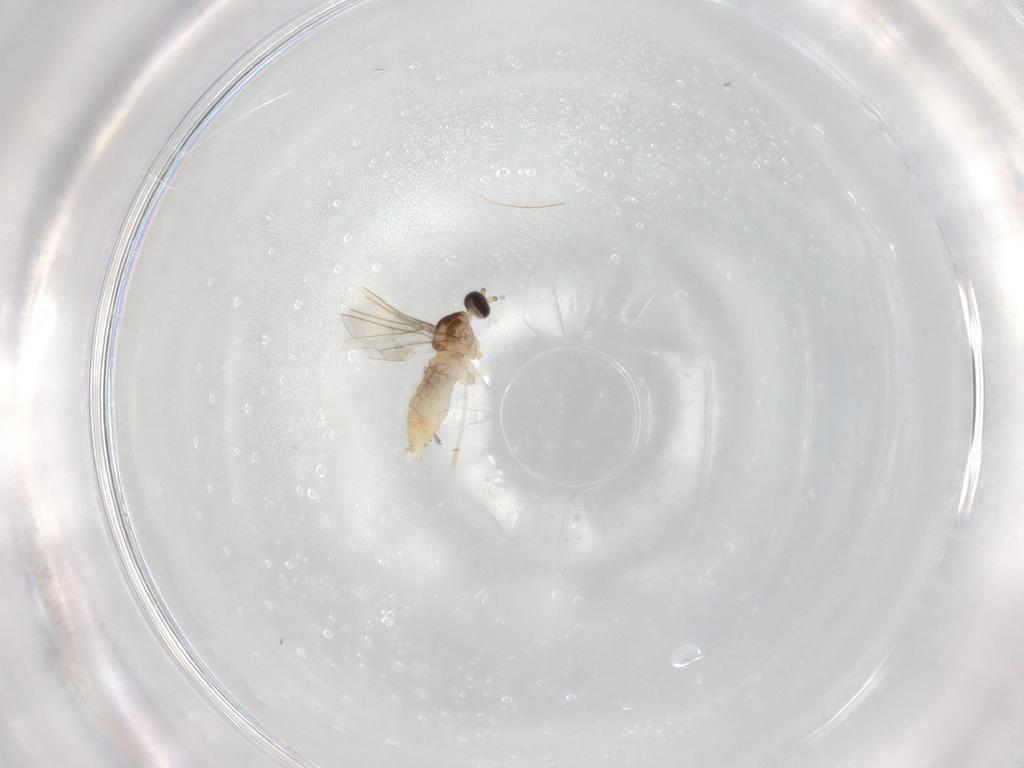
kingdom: Animalia
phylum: Arthropoda
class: Insecta
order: Diptera
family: Cecidomyiidae
